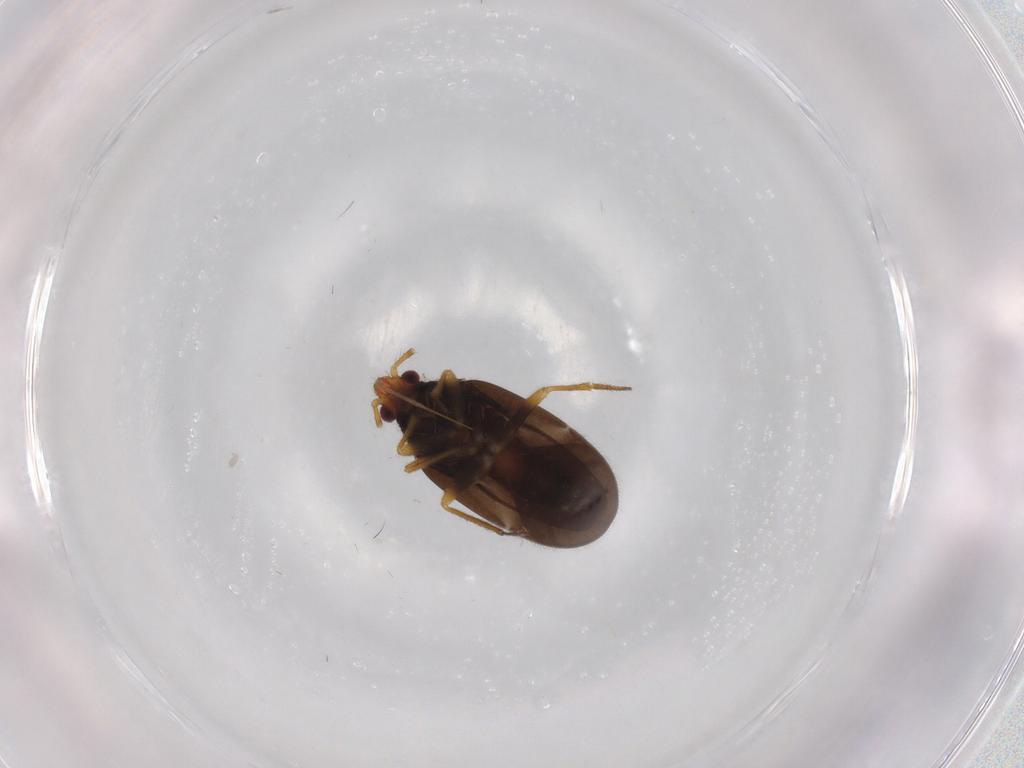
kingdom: Animalia
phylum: Arthropoda
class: Insecta
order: Hemiptera
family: Ceratocombidae
